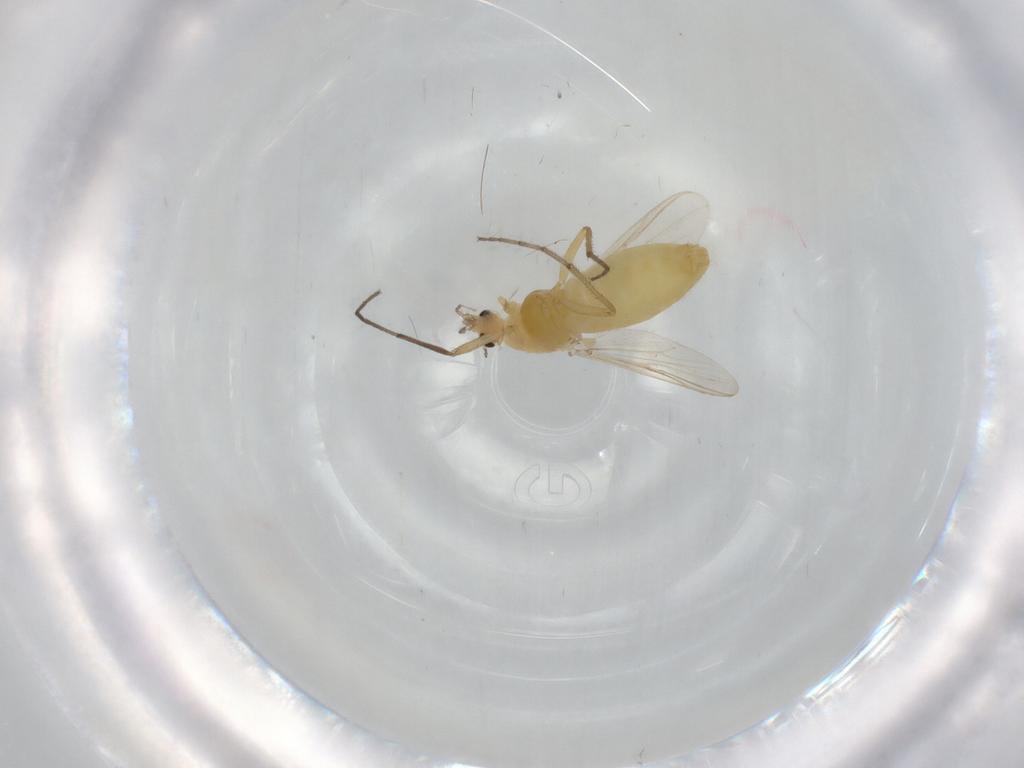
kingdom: Animalia
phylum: Arthropoda
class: Insecta
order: Diptera
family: Chironomidae
